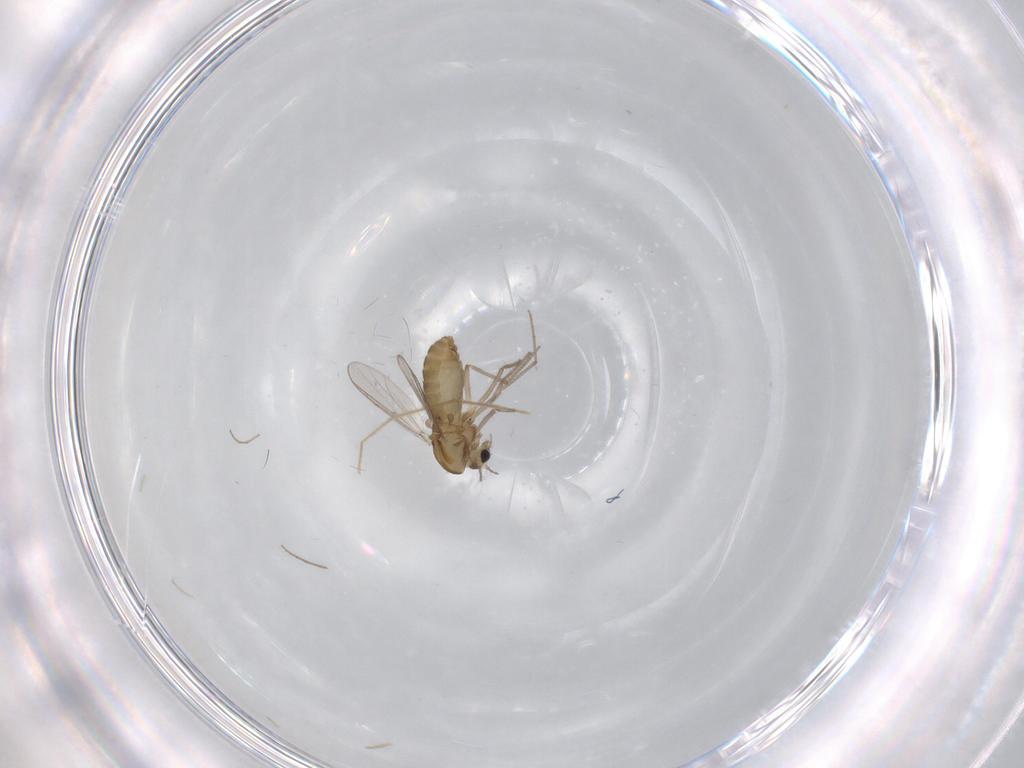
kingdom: Animalia
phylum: Arthropoda
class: Insecta
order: Diptera
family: Chironomidae
